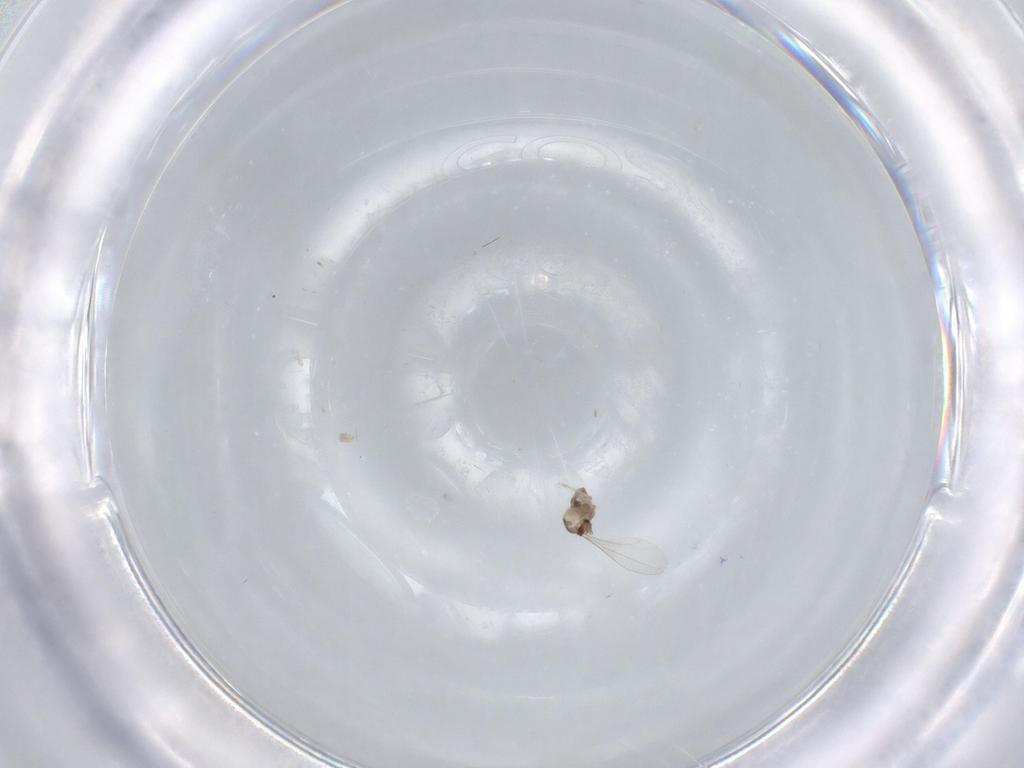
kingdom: Animalia
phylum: Arthropoda
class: Insecta
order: Diptera
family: Cecidomyiidae
